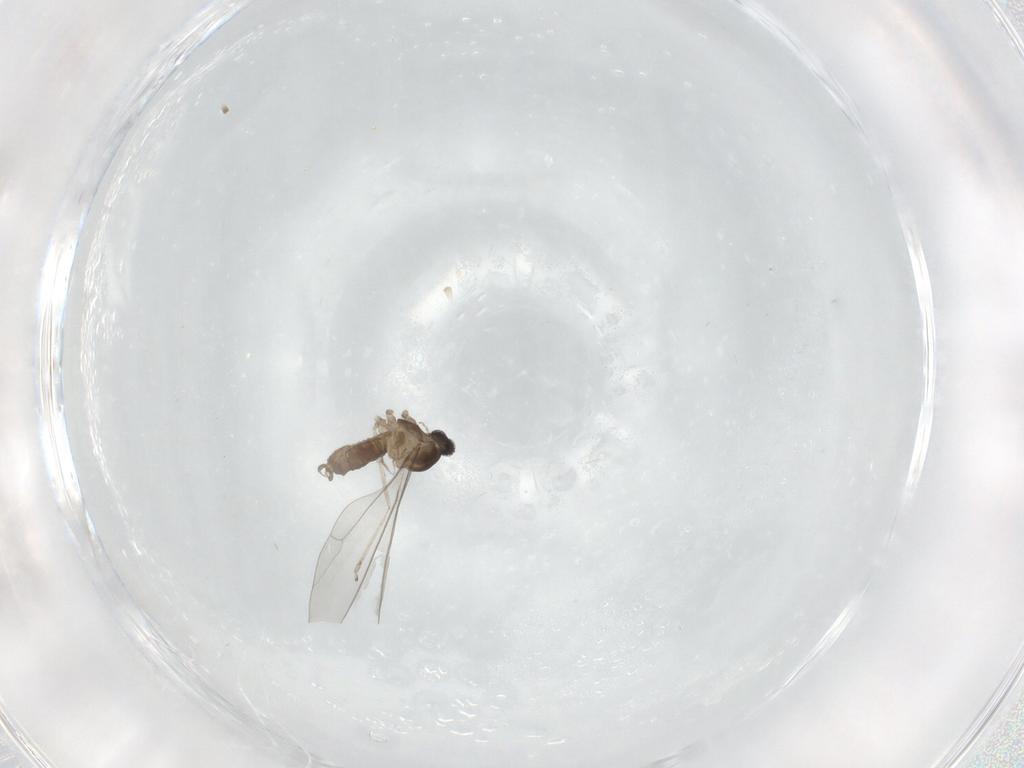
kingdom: Animalia
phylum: Arthropoda
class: Insecta
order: Diptera
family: Cecidomyiidae
